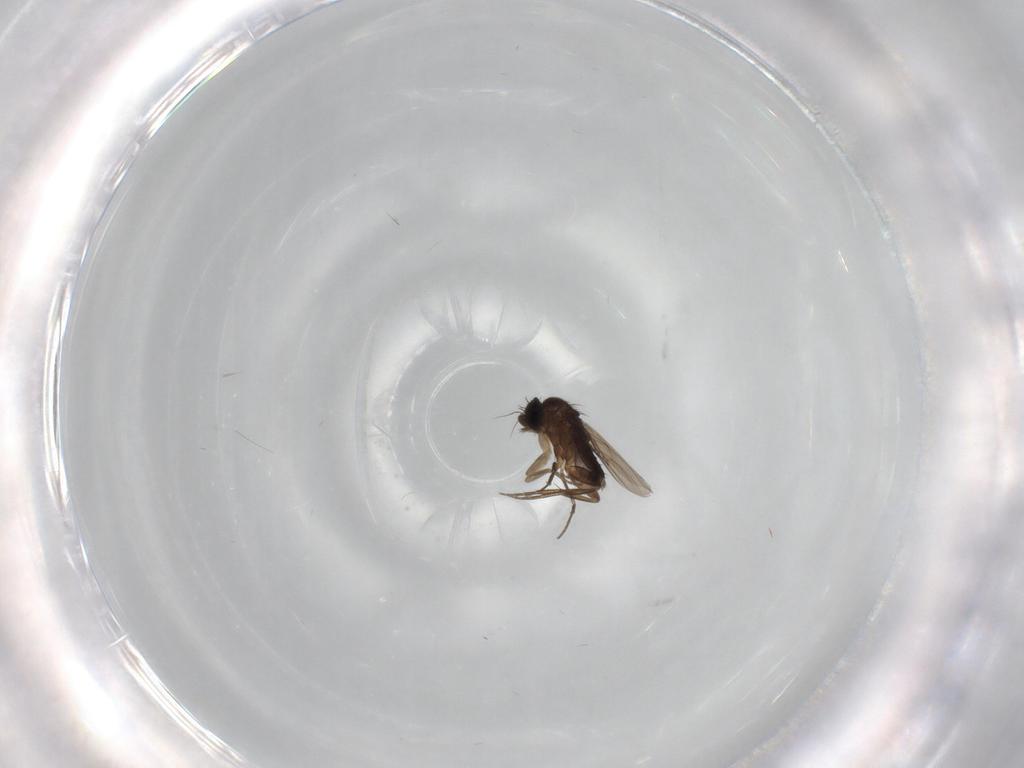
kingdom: Animalia
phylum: Arthropoda
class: Insecta
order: Diptera
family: Phoridae
